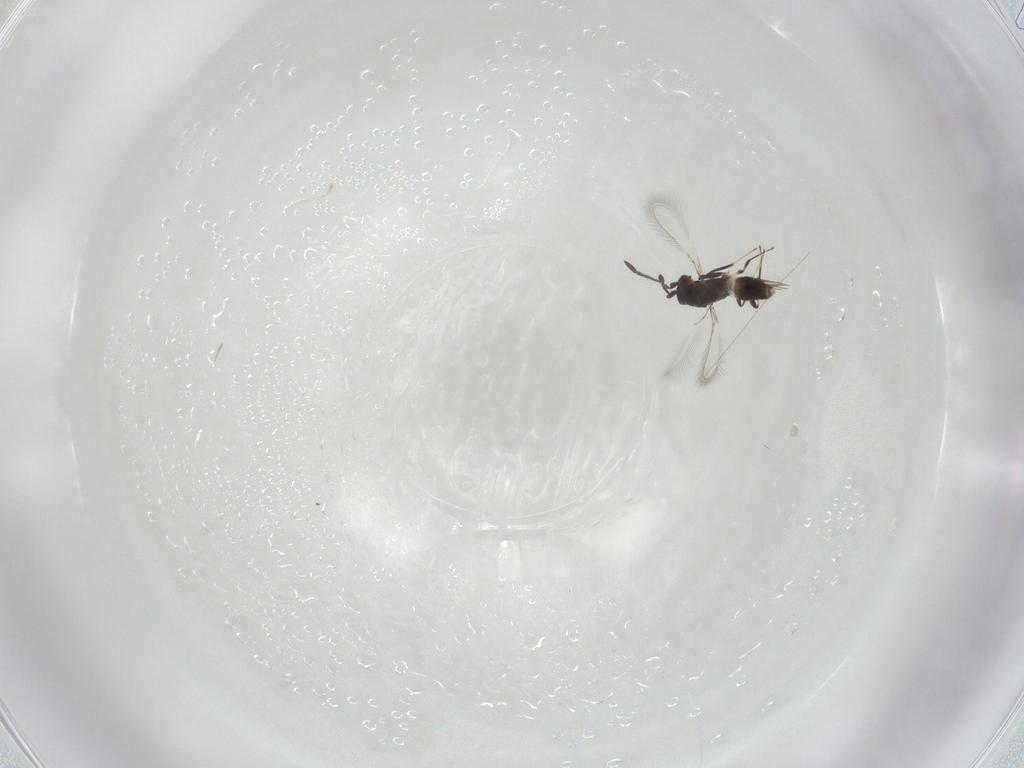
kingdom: Animalia
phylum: Arthropoda
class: Insecta
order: Hymenoptera
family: Mymaridae
